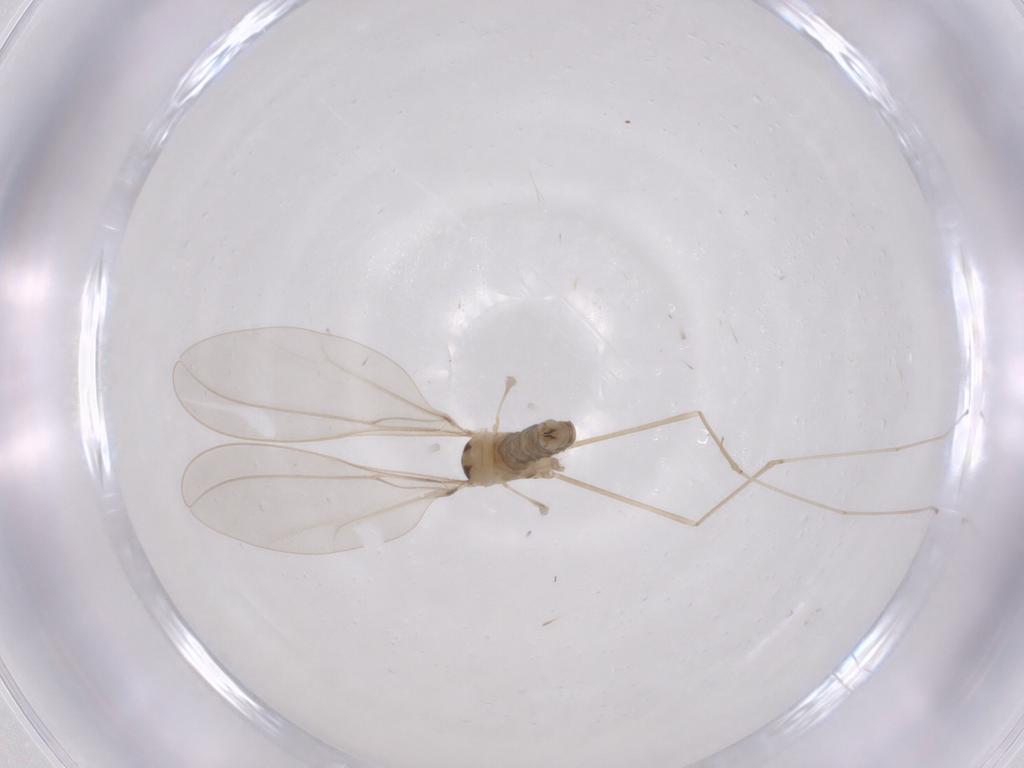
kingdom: Animalia
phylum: Arthropoda
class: Insecta
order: Diptera
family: Cecidomyiidae
